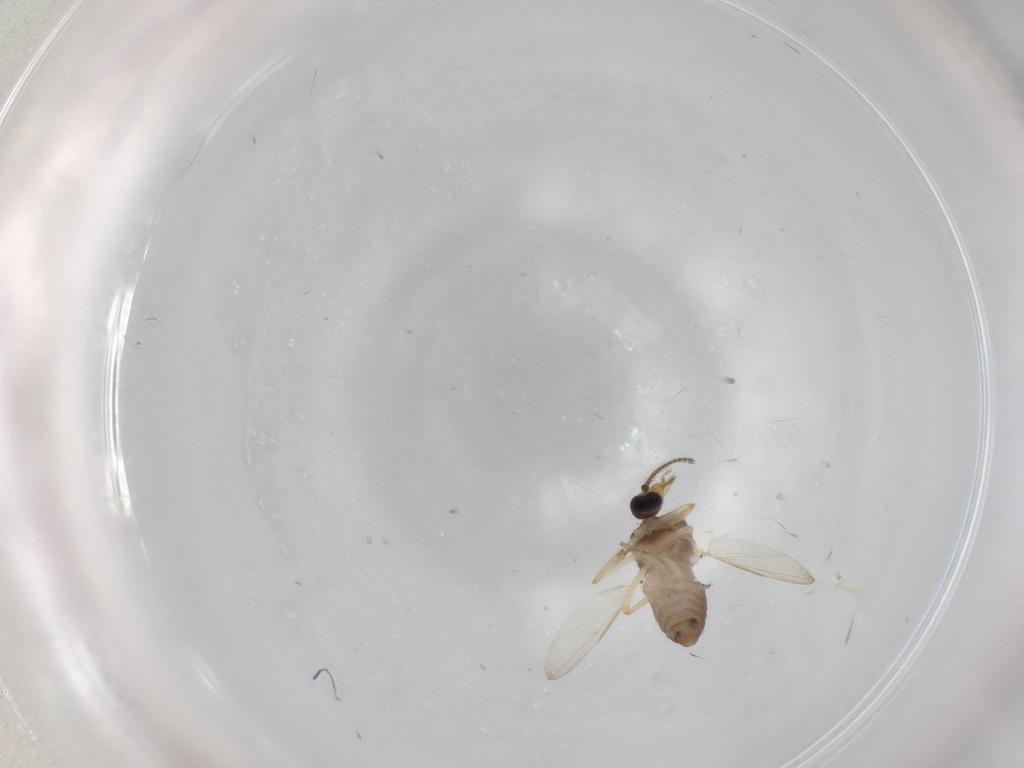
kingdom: Animalia
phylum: Arthropoda
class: Insecta
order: Diptera
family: Ceratopogonidae
